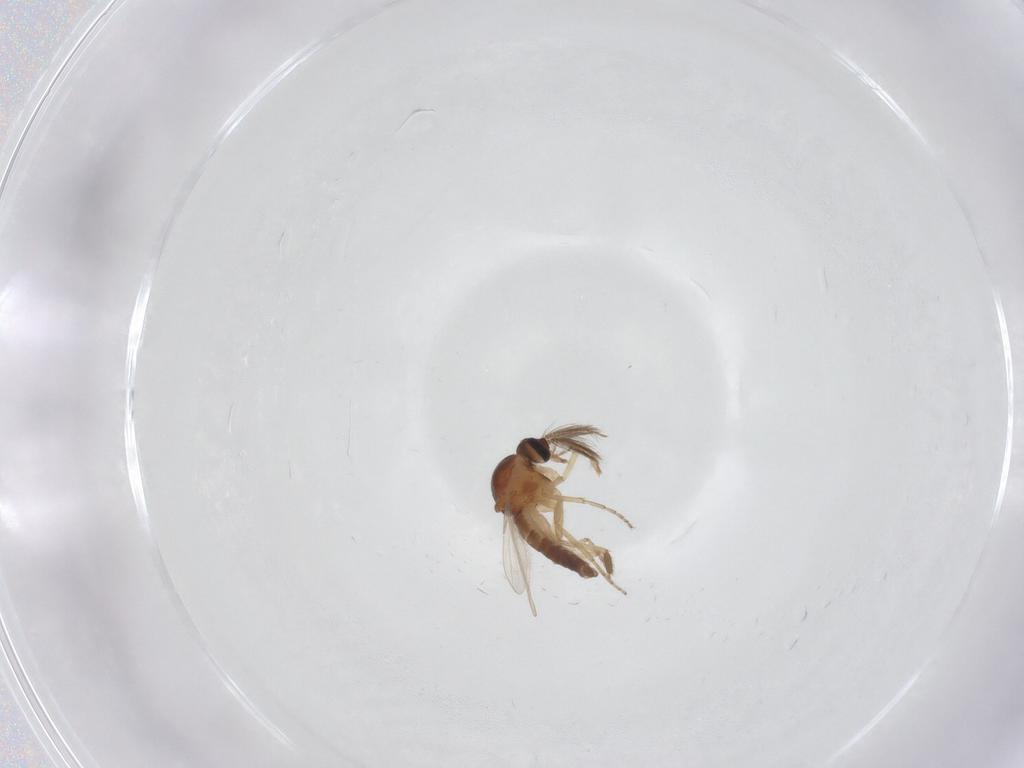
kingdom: Animalia
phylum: Arthropoda
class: Insecta
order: Diptera
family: Ceratopogonidae
